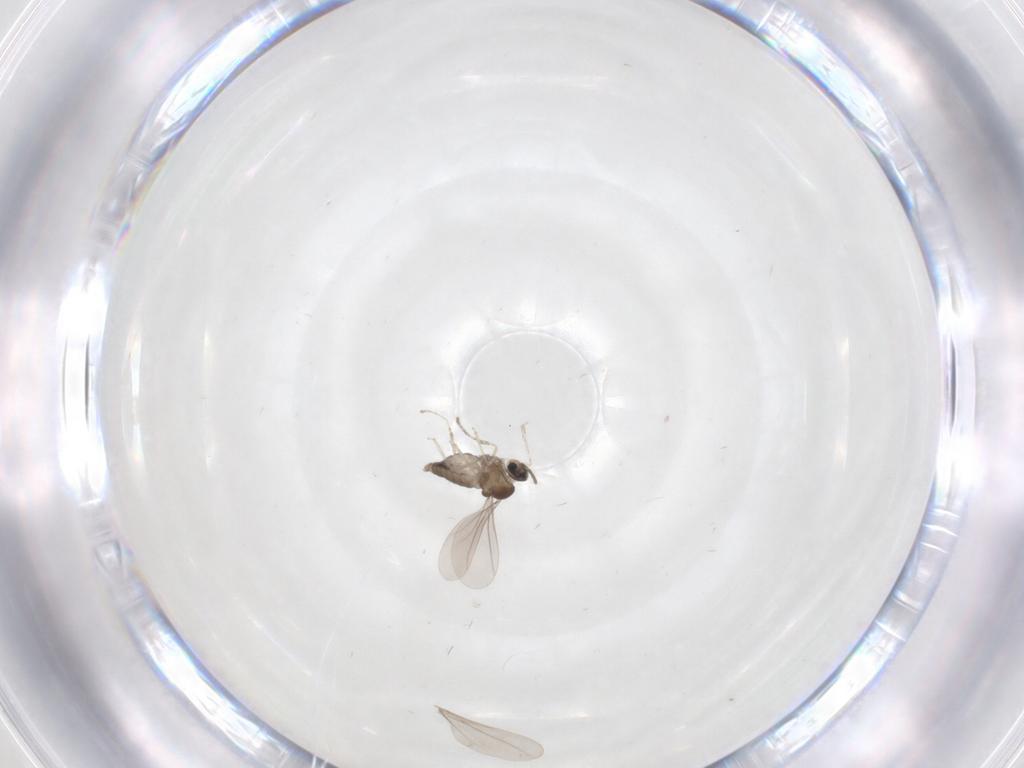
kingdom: Animalia
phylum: Arthropoda
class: Insecta
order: Diptera
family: Cecidomyiidae
